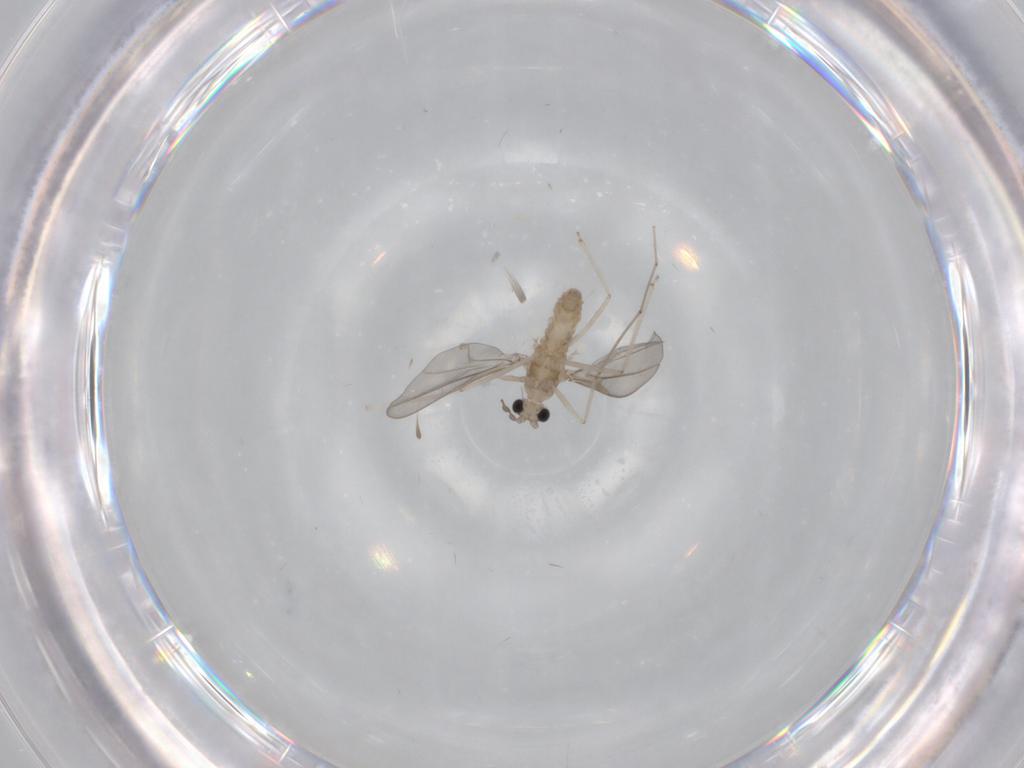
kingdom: Animalia
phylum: Arthropoda
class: Insecta
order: Diptera
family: Cecidomyiidae
